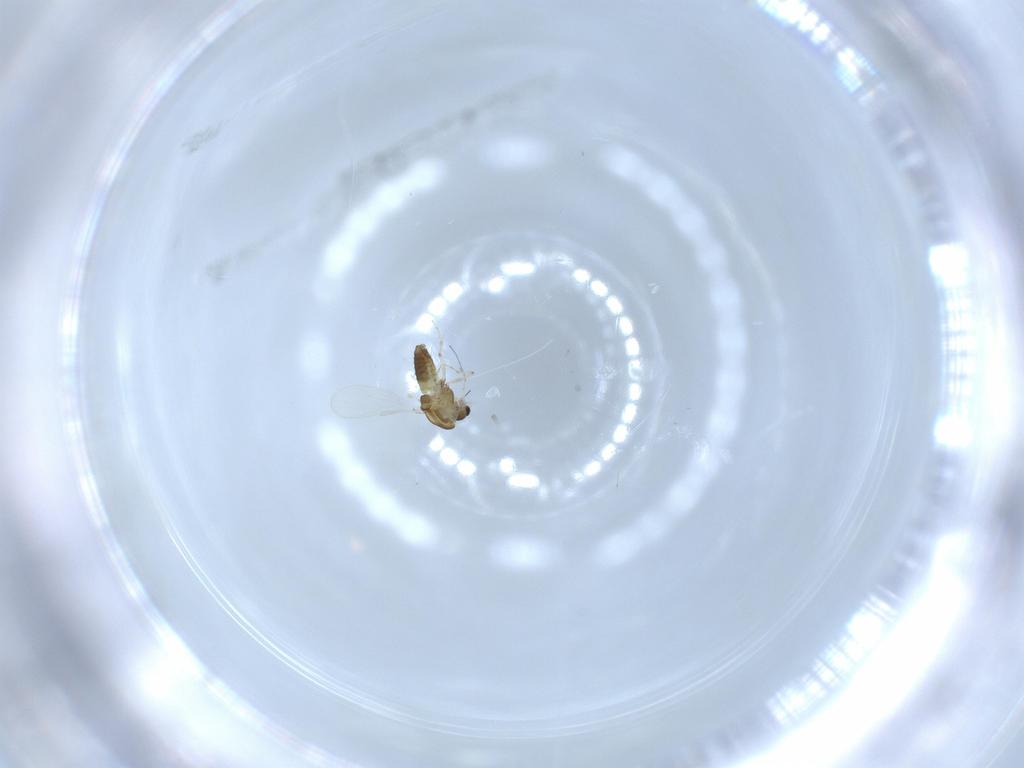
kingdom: Animalia
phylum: Arthropoda
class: Insecta
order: Diptera
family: Chironomidae
